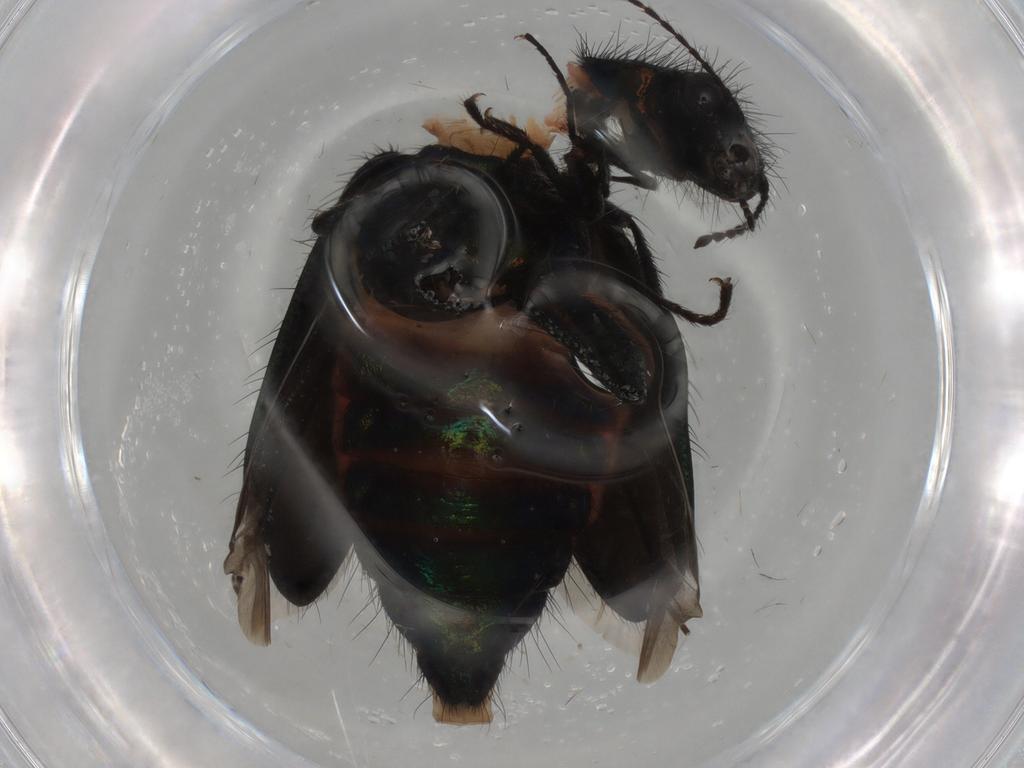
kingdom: Animalia
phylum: Arthropoda
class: Insecta
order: Coleoptera
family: Melyridae
